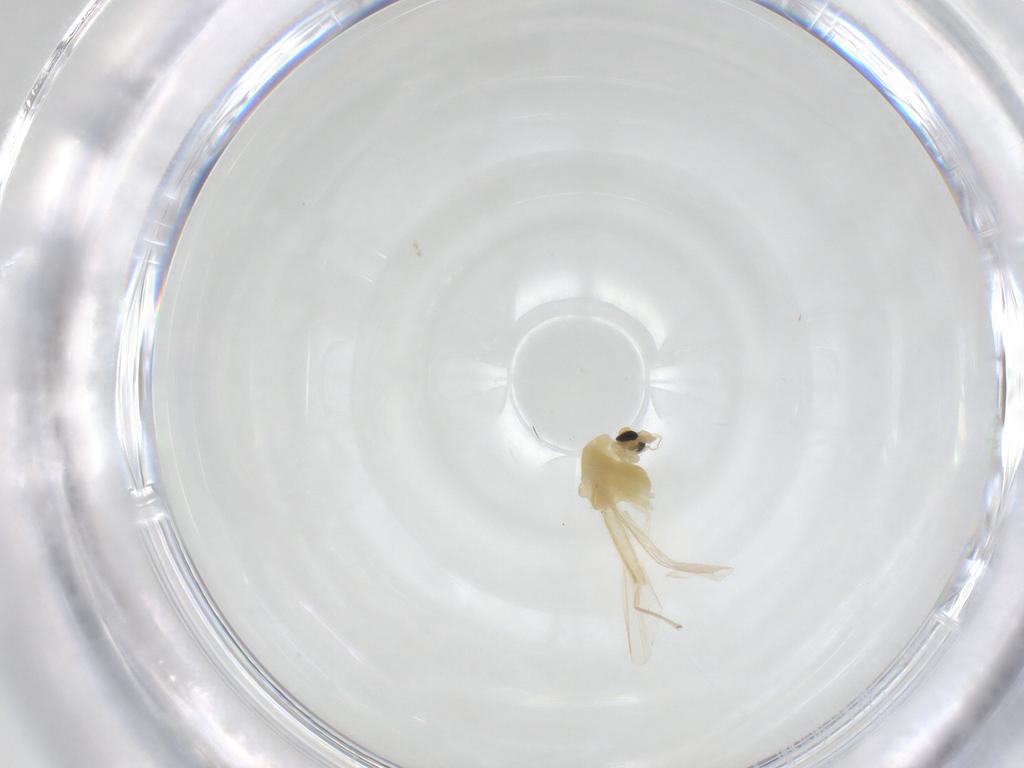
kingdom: Animalia
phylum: Arthropoda
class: Insecta
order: Diptera
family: Chironomidae
